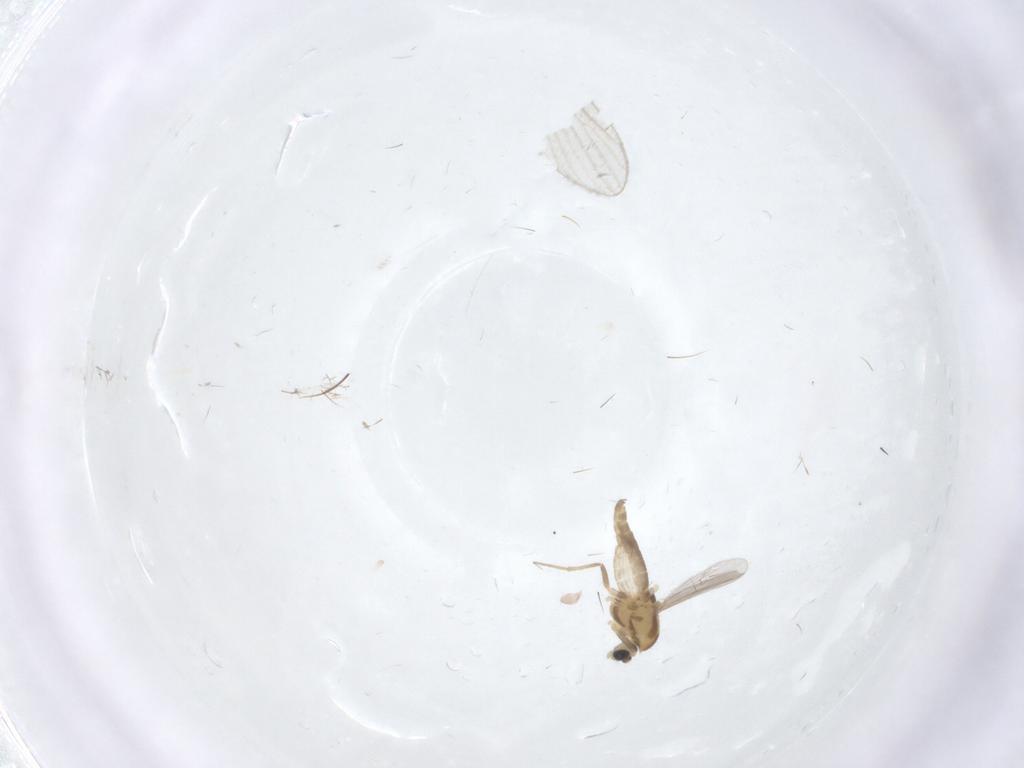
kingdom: Animalia
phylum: Arthropoda
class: Insecta
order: Diptera
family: Chironomidae
